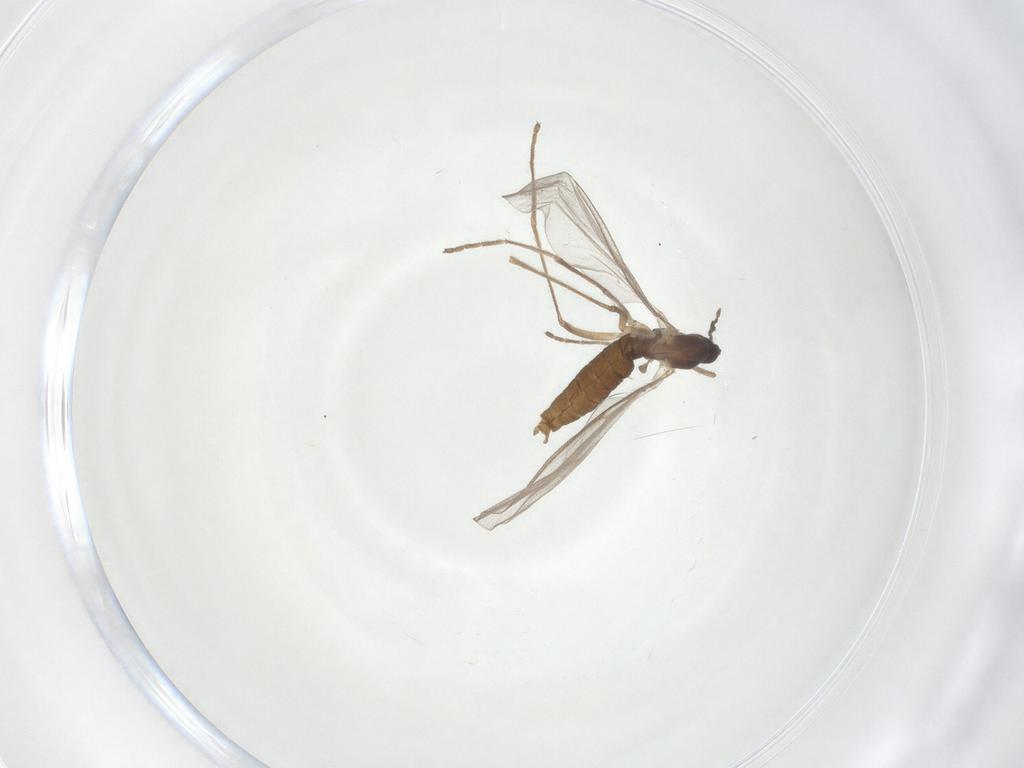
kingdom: Animalia
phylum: Arthropoda
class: Insecta
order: Diptera
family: Cecidomyiidae
